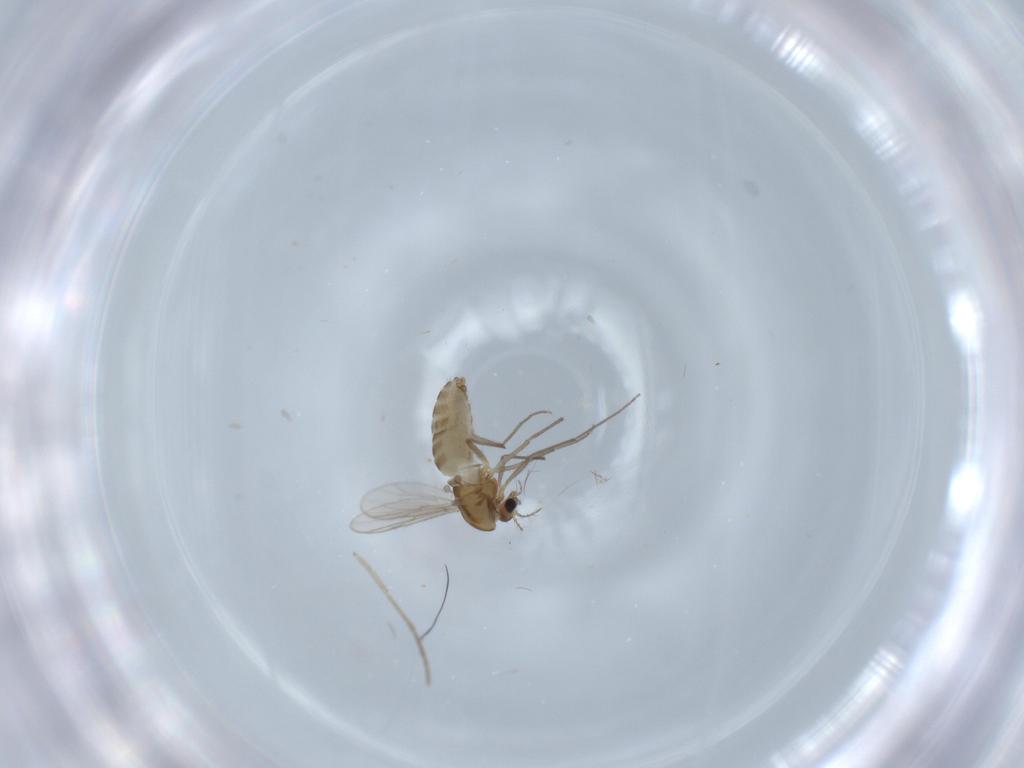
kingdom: Animalia
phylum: Arthropoda
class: Insecta
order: Diptera
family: Chironomidae
